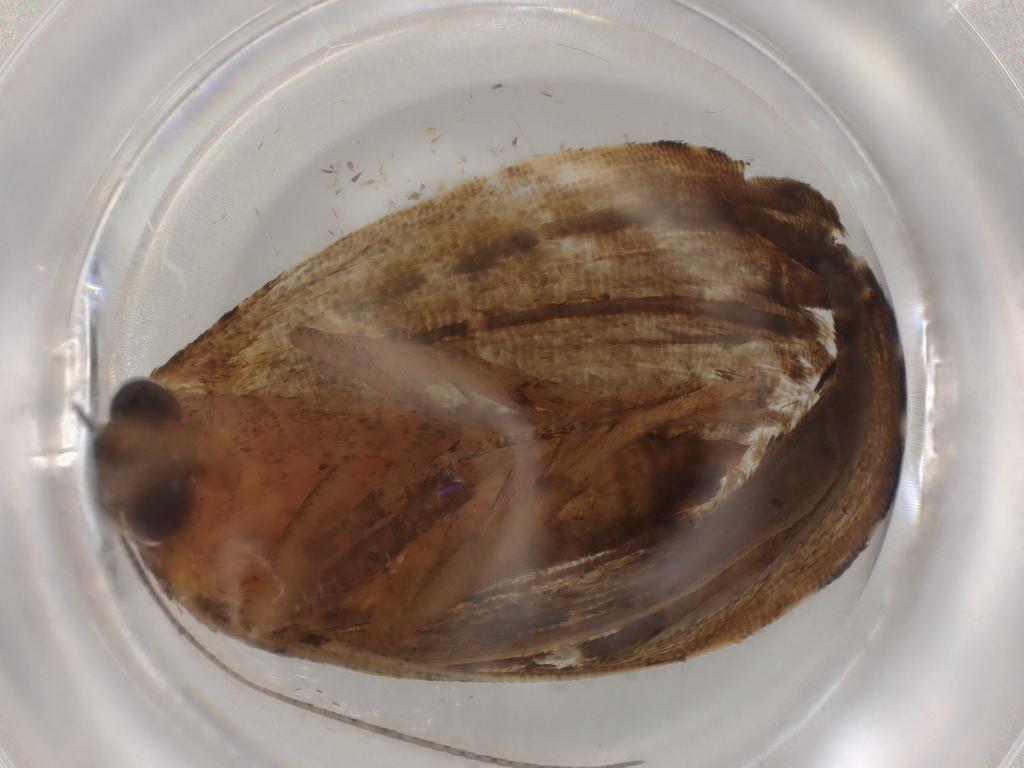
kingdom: Animalia
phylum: Arthropoda
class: Insecta
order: Lepidoptera
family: Erebidae
